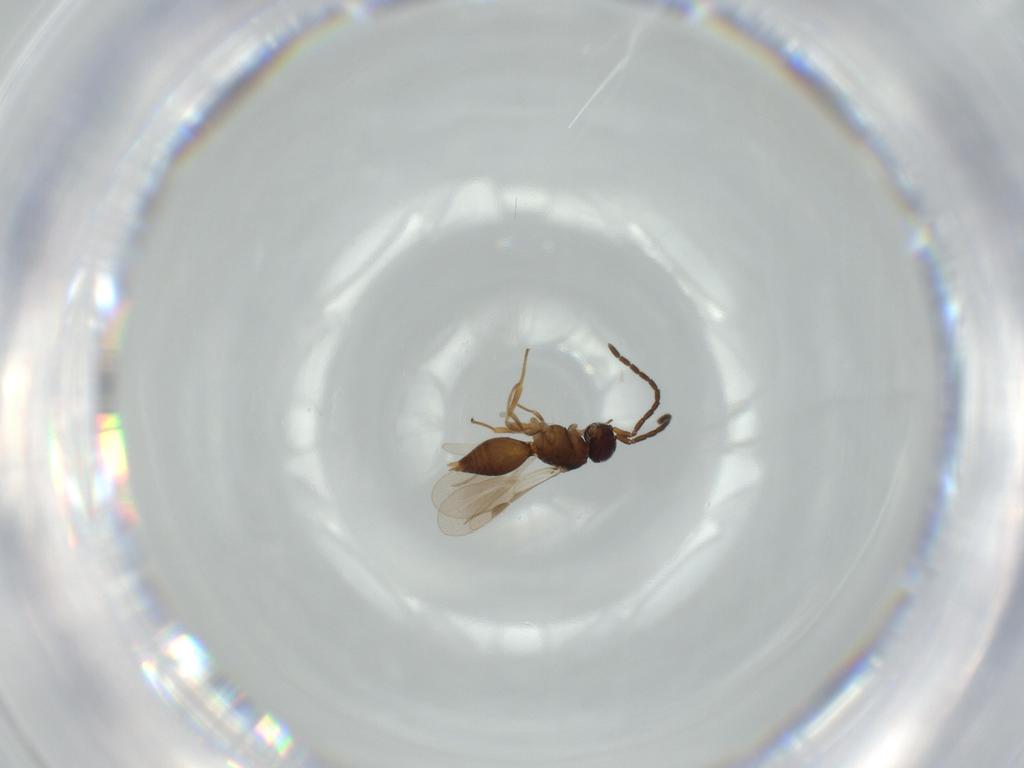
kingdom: Animalia
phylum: Arthropoda
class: Insecta
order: Hymenoptera
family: Megaspilidae
